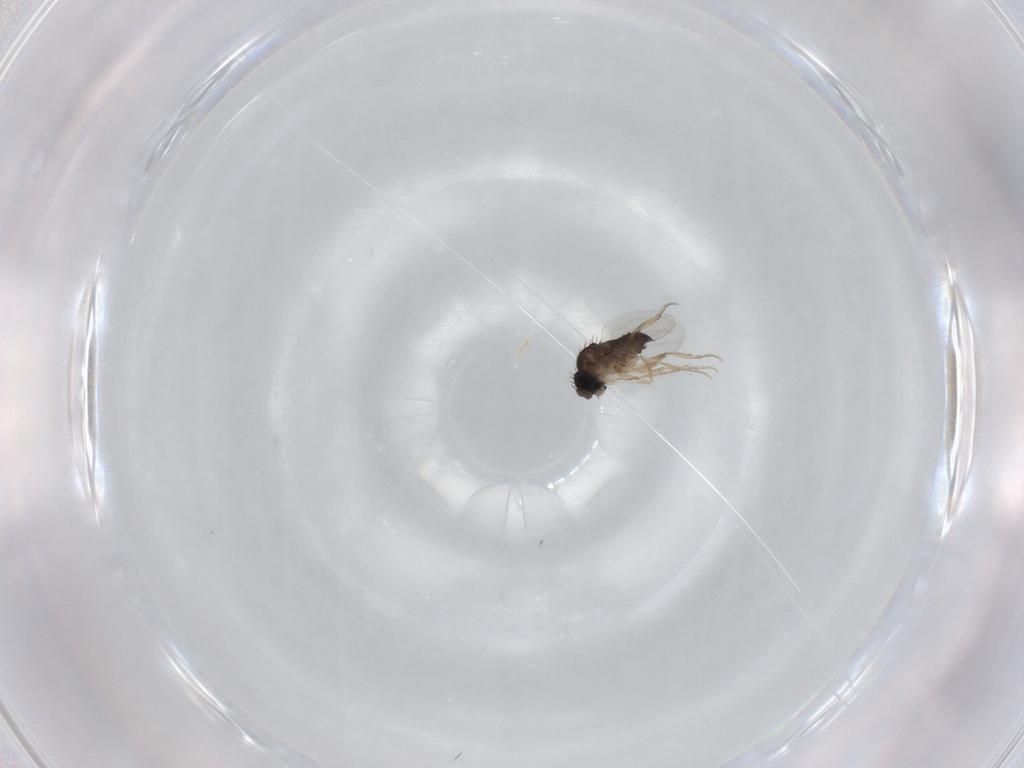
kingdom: Animalia
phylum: Arthropoda
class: Insecta
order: Diptera
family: Phoridae
